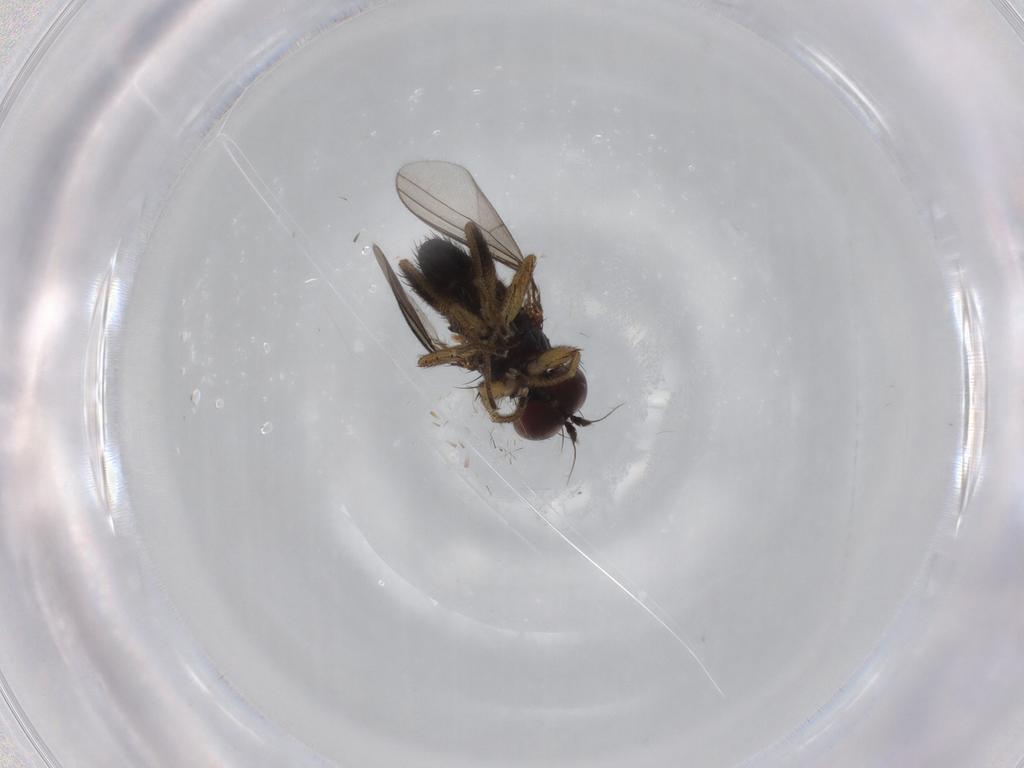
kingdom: Animalia
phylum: Arthropoda
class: Insecta
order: Diptera
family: Dolichopodidae
